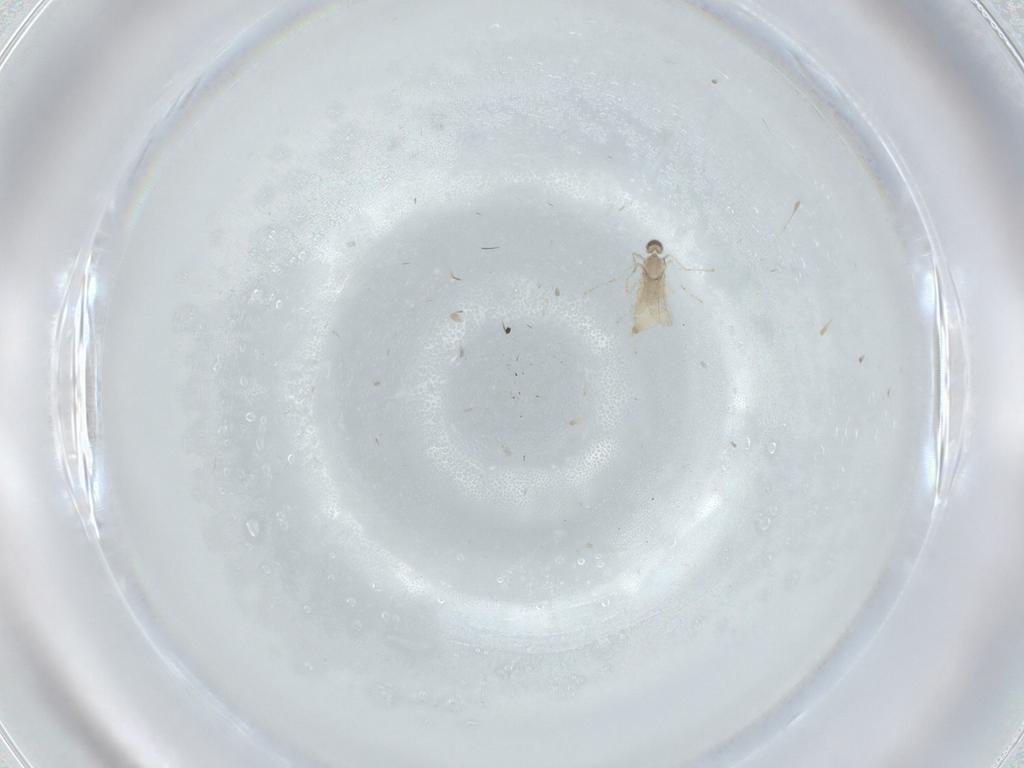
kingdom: Animalia
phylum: Arthropoda
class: Insecta
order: Diptera
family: Cecidomyiidae
